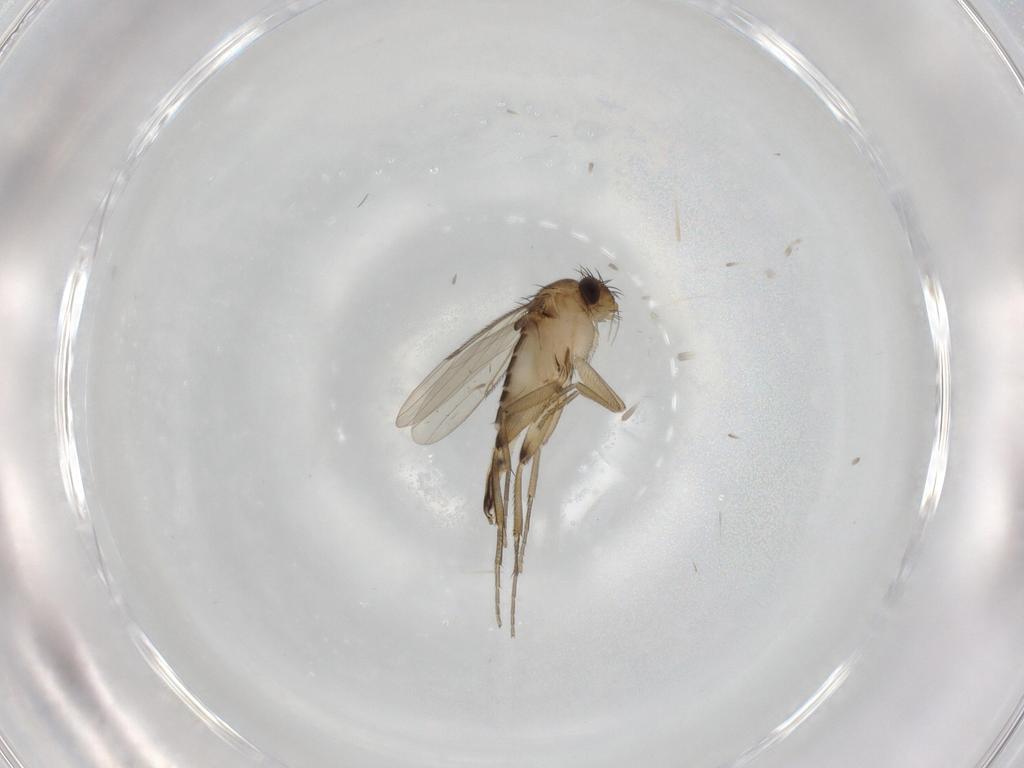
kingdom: Animalia
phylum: Arthropoda
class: Insecta
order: Diptera
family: Phoridae
